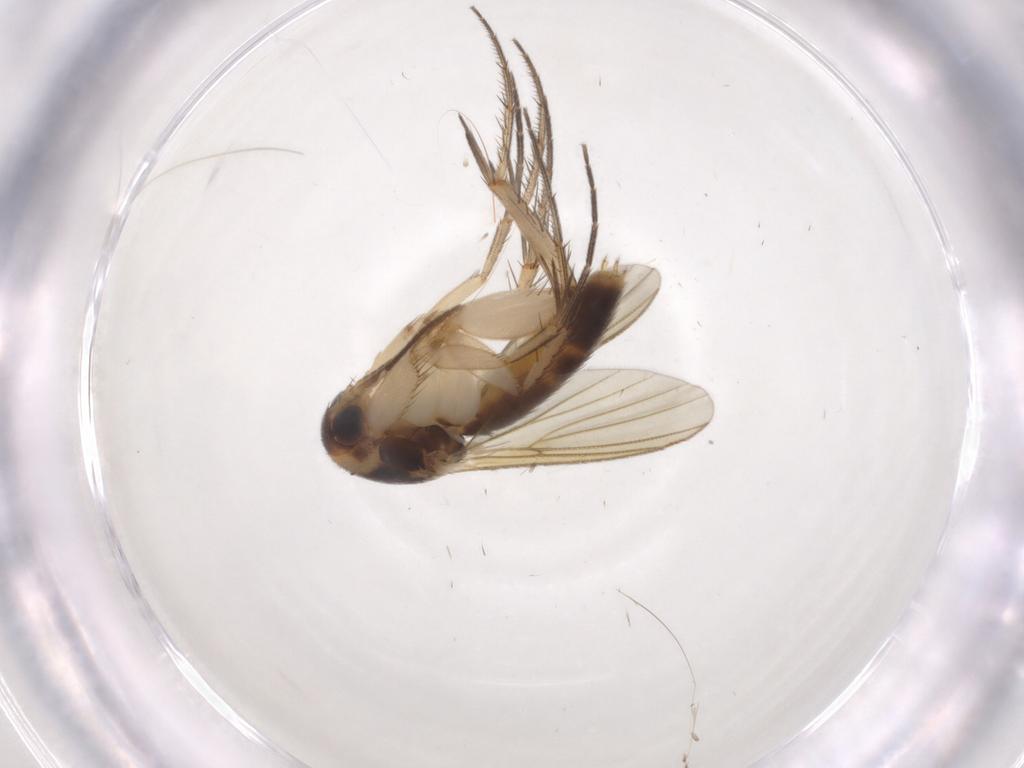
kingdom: Animalia
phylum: Arthropoda
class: Insecta
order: Diptera
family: Mycetophilidae
